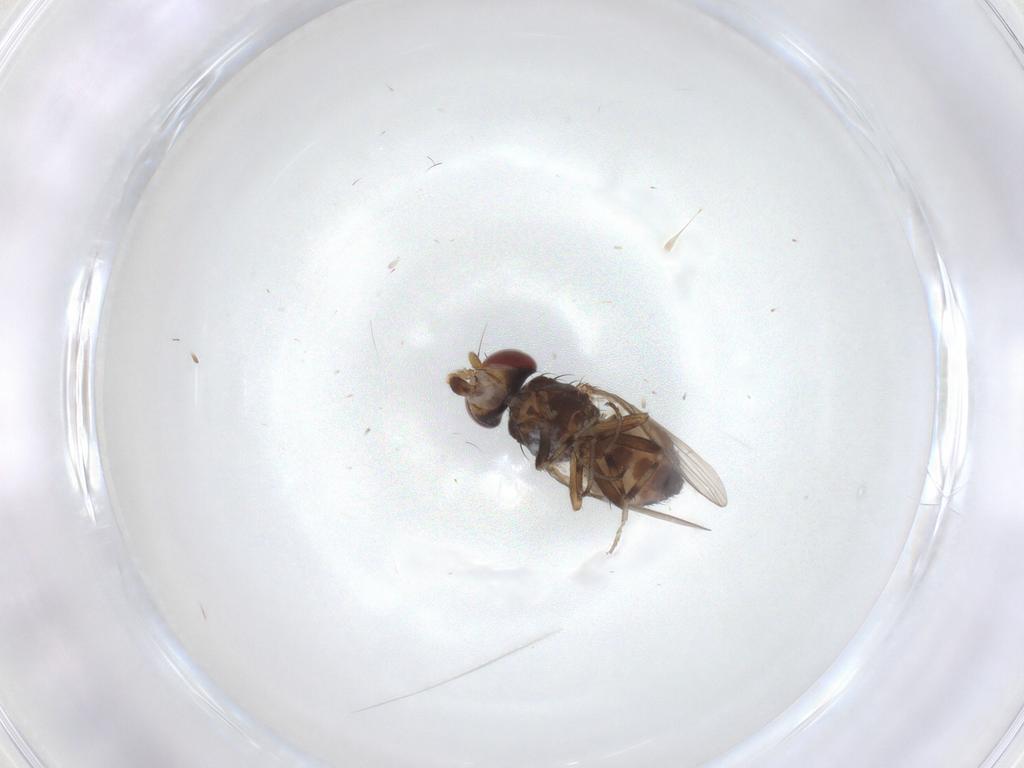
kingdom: Animalia
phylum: Arthropoda
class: Insecta
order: Diptera
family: Heleomyzidae
